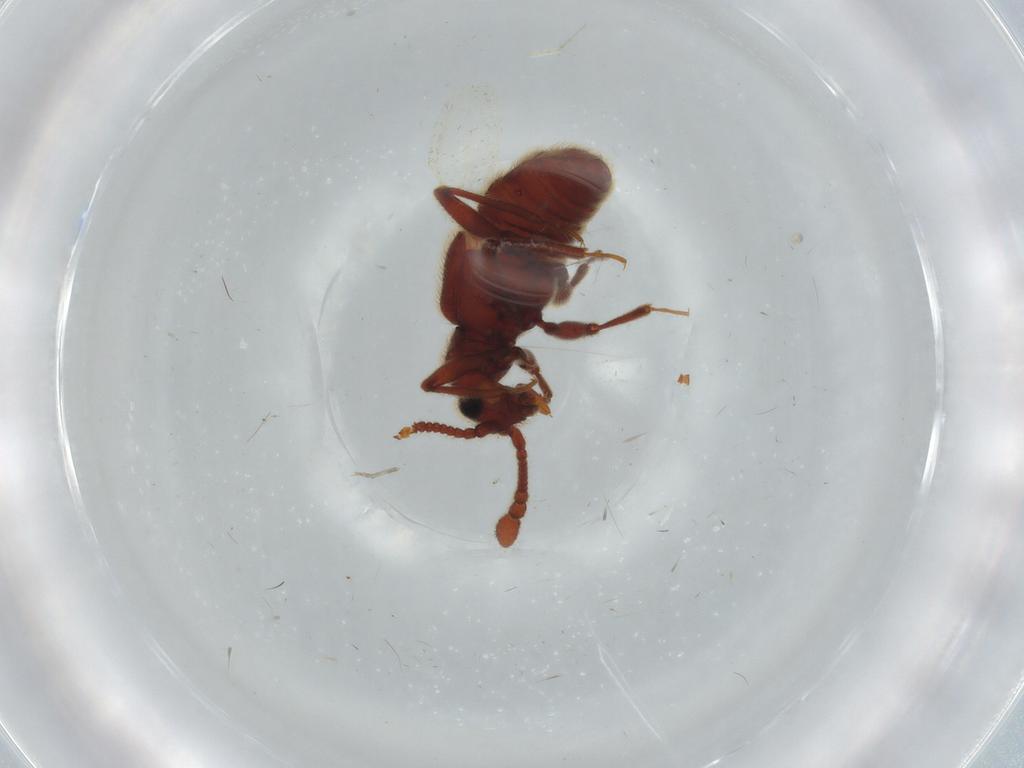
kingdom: Animalia
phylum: Arthropoda
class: Insecta
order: Coleoptera
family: Staphylinidae
